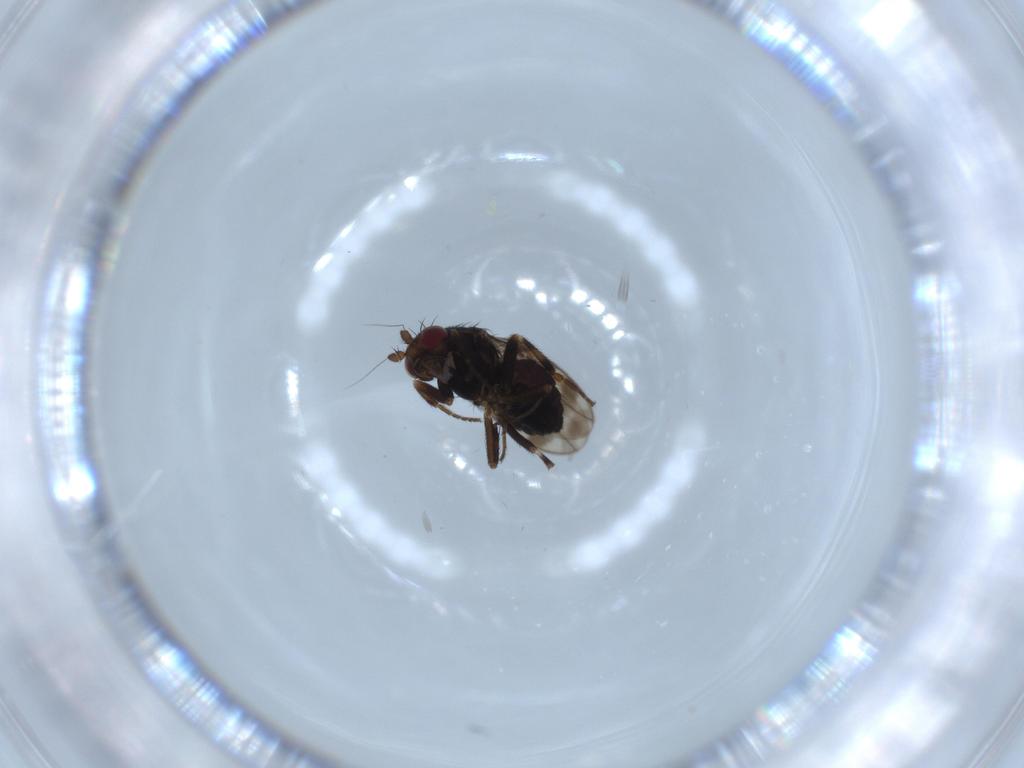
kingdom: Animalia
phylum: Arthropoda
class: Insecta
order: Diptera
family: Sphaeroceridae
